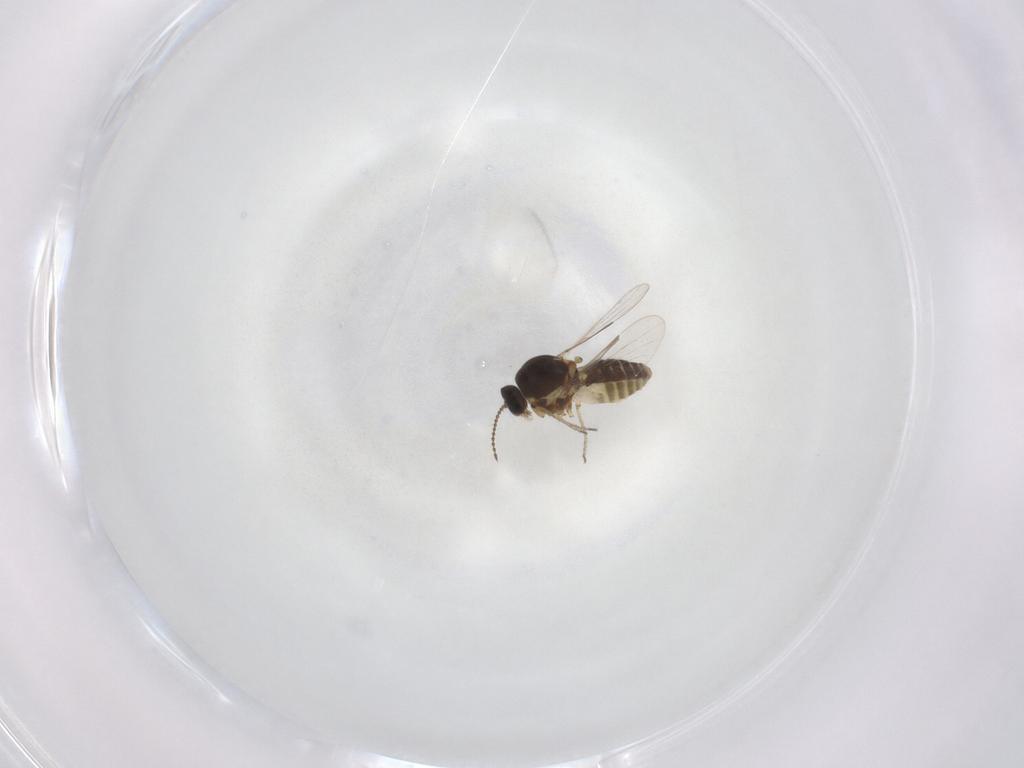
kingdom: Animalia
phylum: Arthropoda
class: Insecta
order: Diptera
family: Ceratopogonidae
